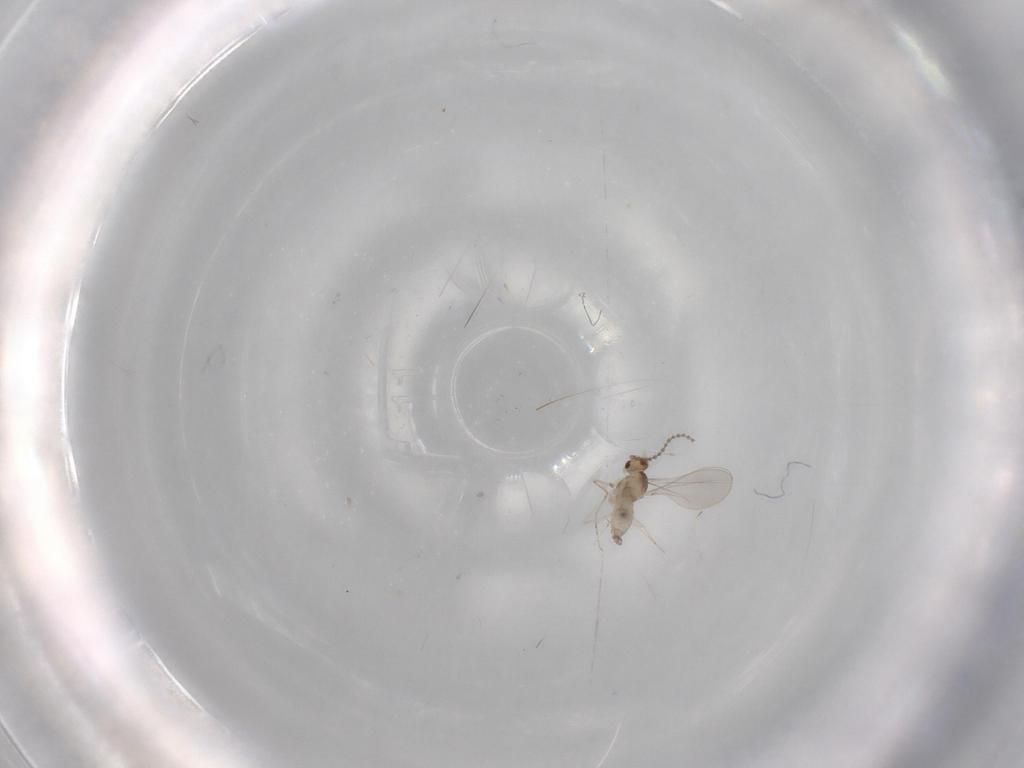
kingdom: Animalia
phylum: Arthropoda
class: Insecta
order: Diptera
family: Cecidomyiidae
